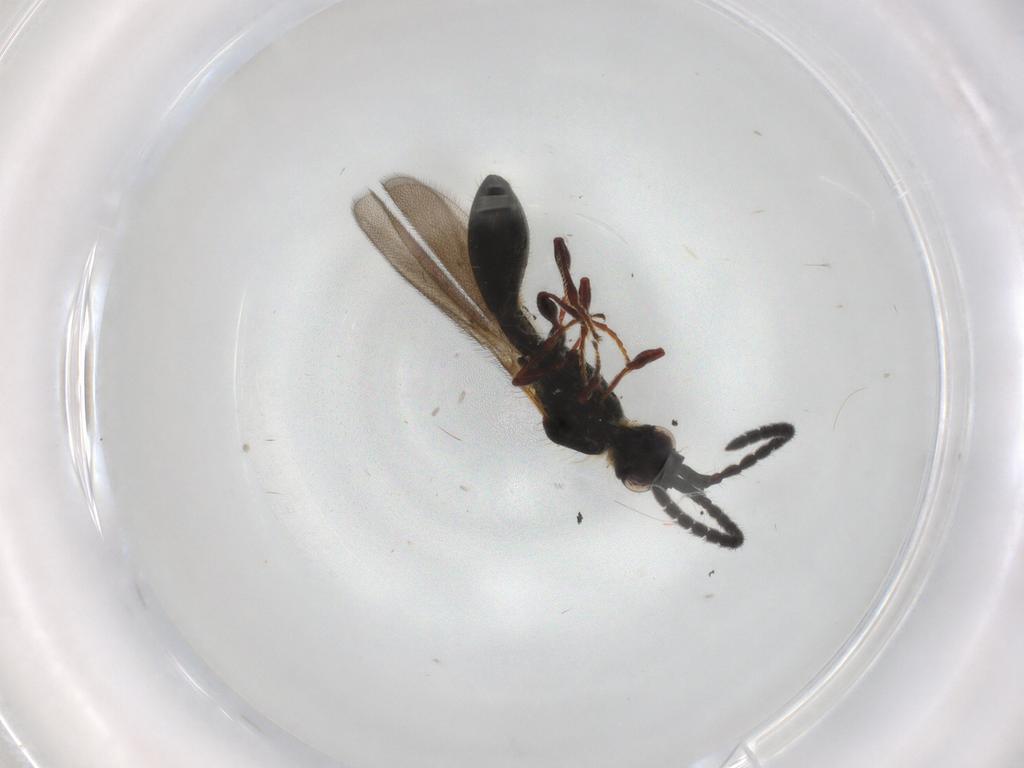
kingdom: Animalia
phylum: Arthropoda
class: Insecta
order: Hymenoptera
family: Diapriidae
